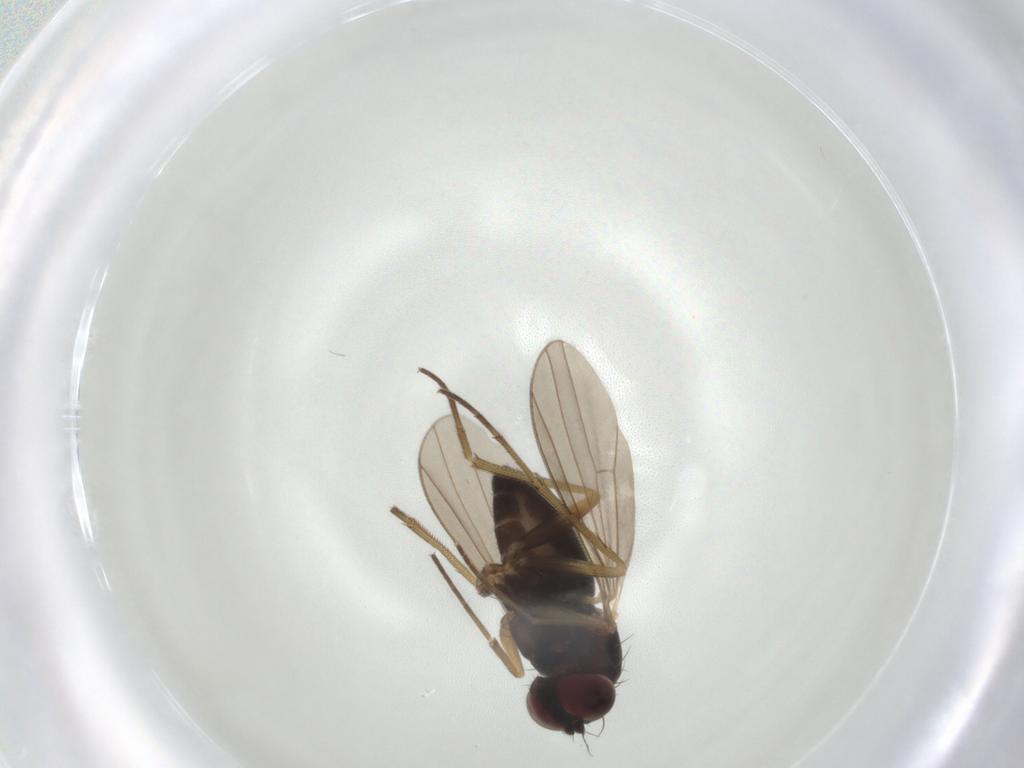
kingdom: Animalia
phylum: Arthropoda
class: Insecta
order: Diptera
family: Lauxaniidae
